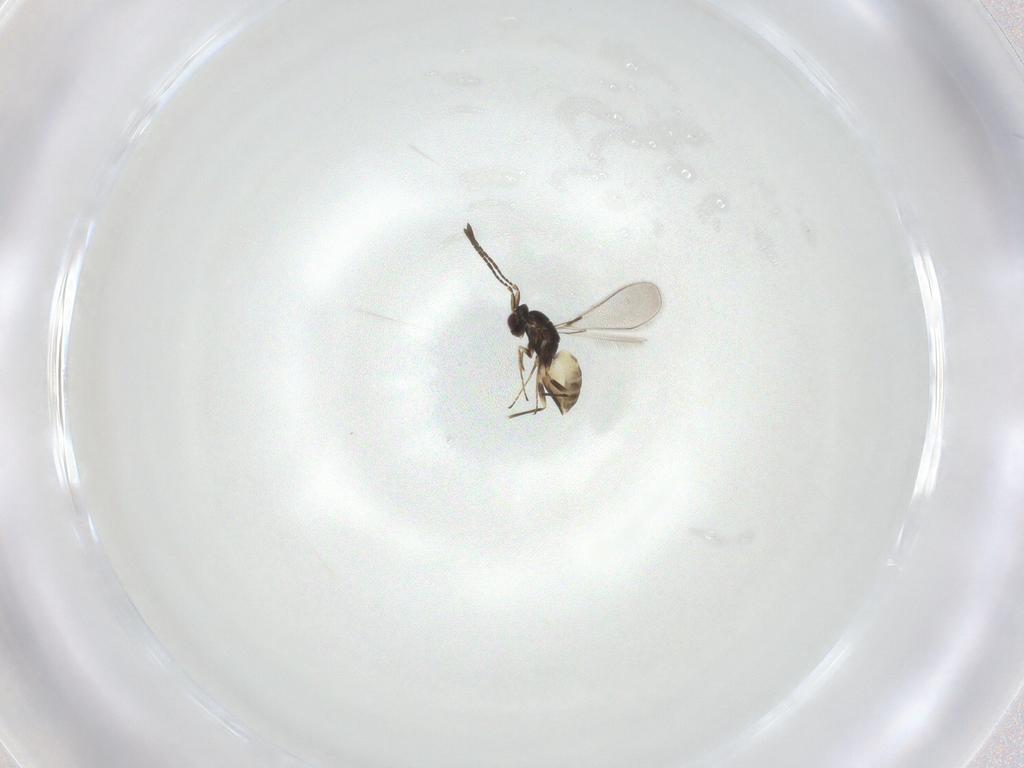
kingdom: Animalia
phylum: Arthropoda
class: Insecta
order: Hymenoptera
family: Mymaridae
